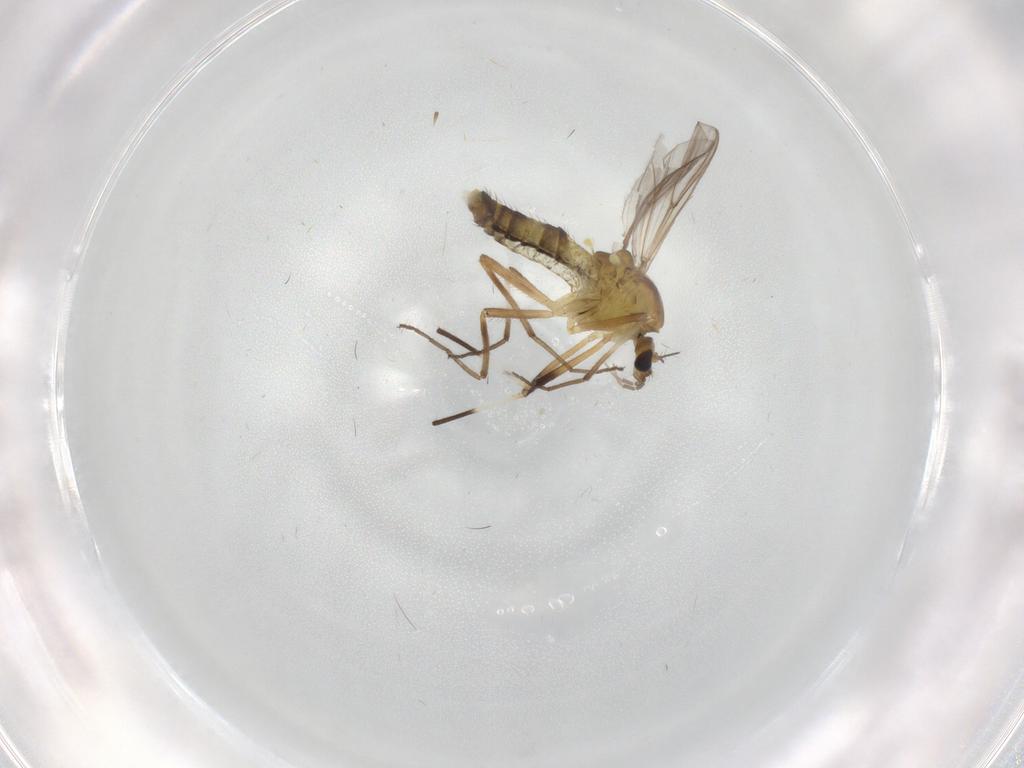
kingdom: Animalia
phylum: Arthropoda
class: Insecta
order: Diptera
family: Chironomidae
